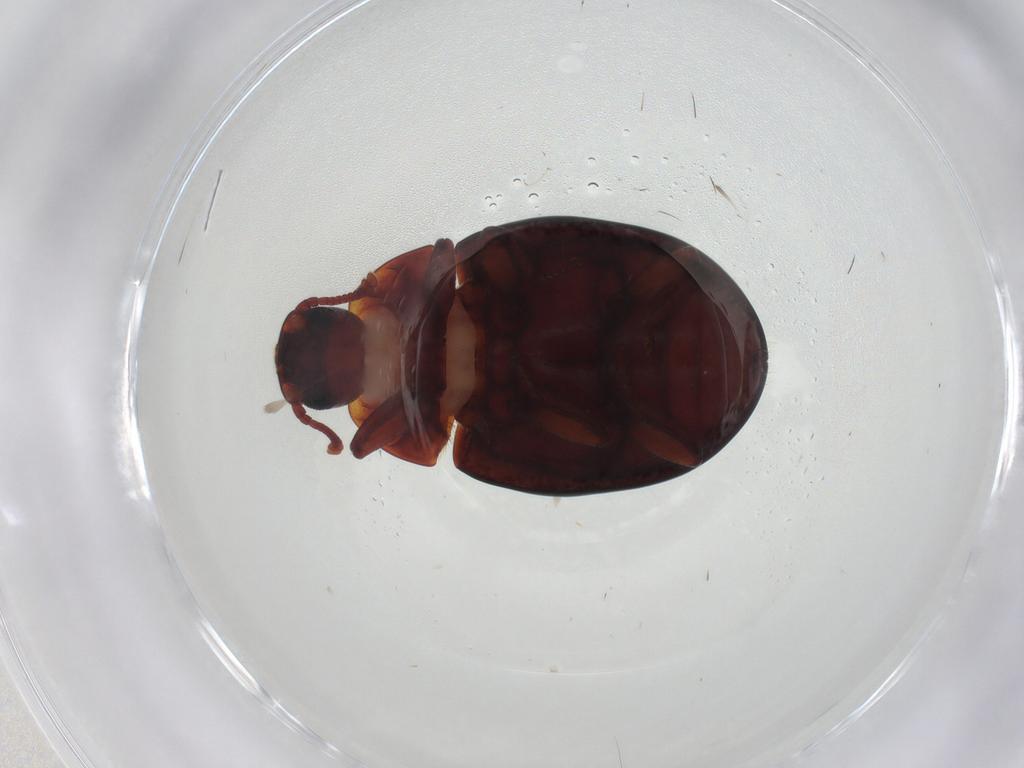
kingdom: Animalia
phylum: Arthropoda
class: Insecta
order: Coleoptera
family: Zopheridae
